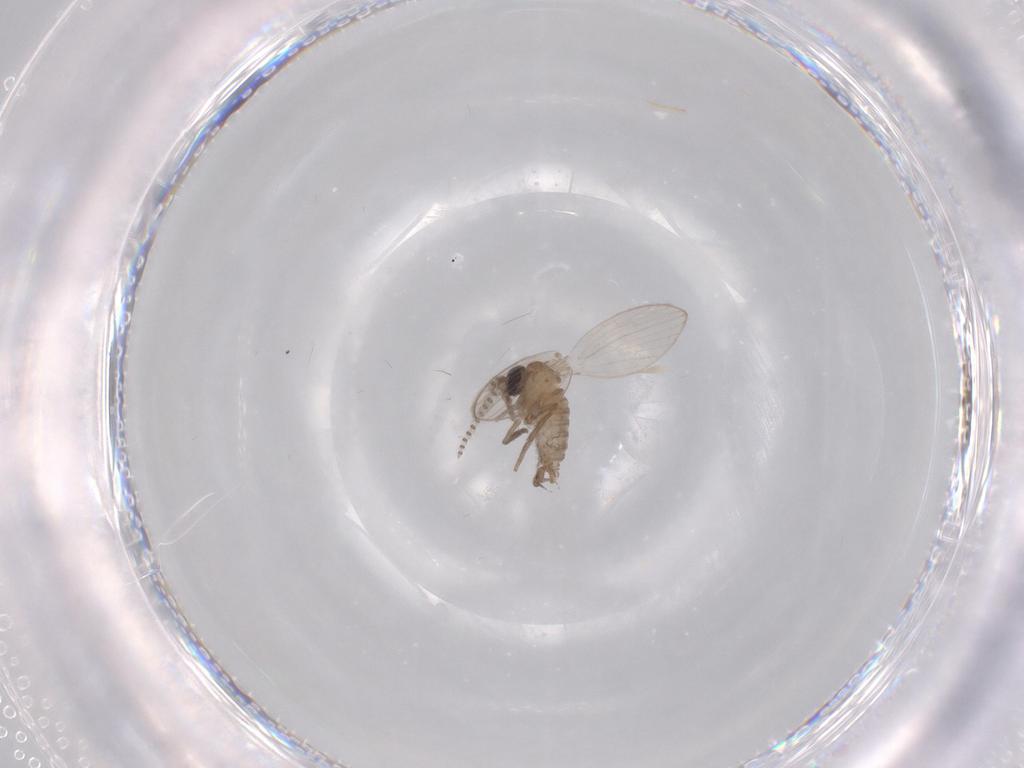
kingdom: Animalia
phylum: Arthropoda
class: Insecta
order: Diptera
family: Psychodidae
